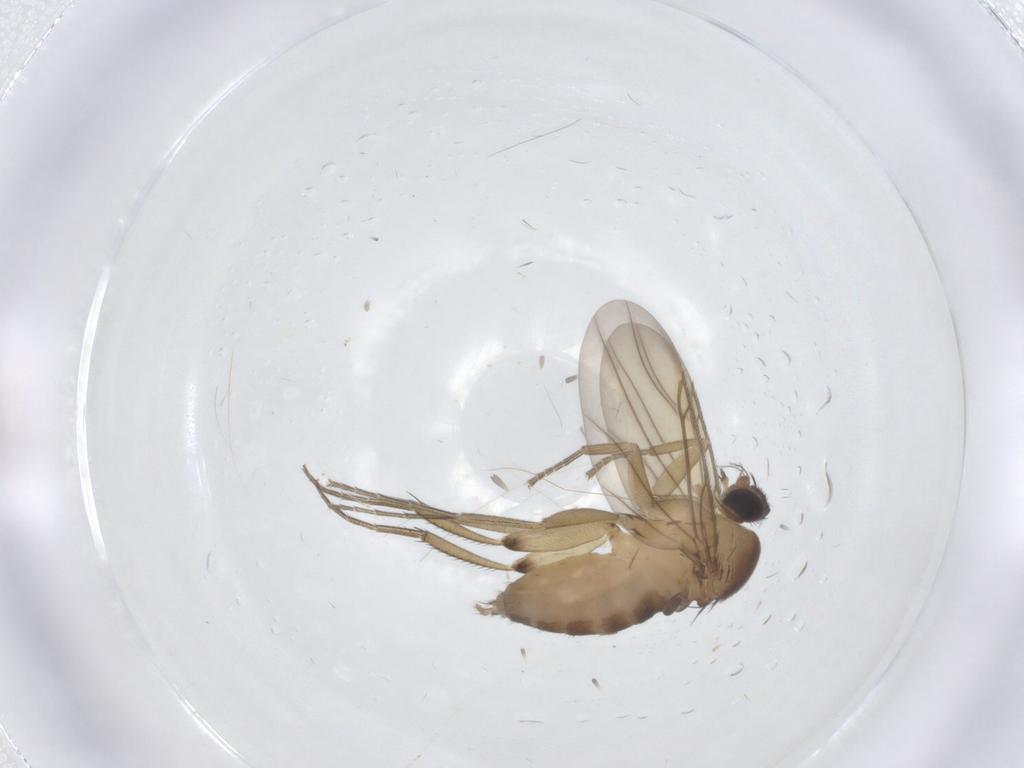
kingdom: Animalia
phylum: Arthropoda
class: Insecta
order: Diptera
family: Phoridae
